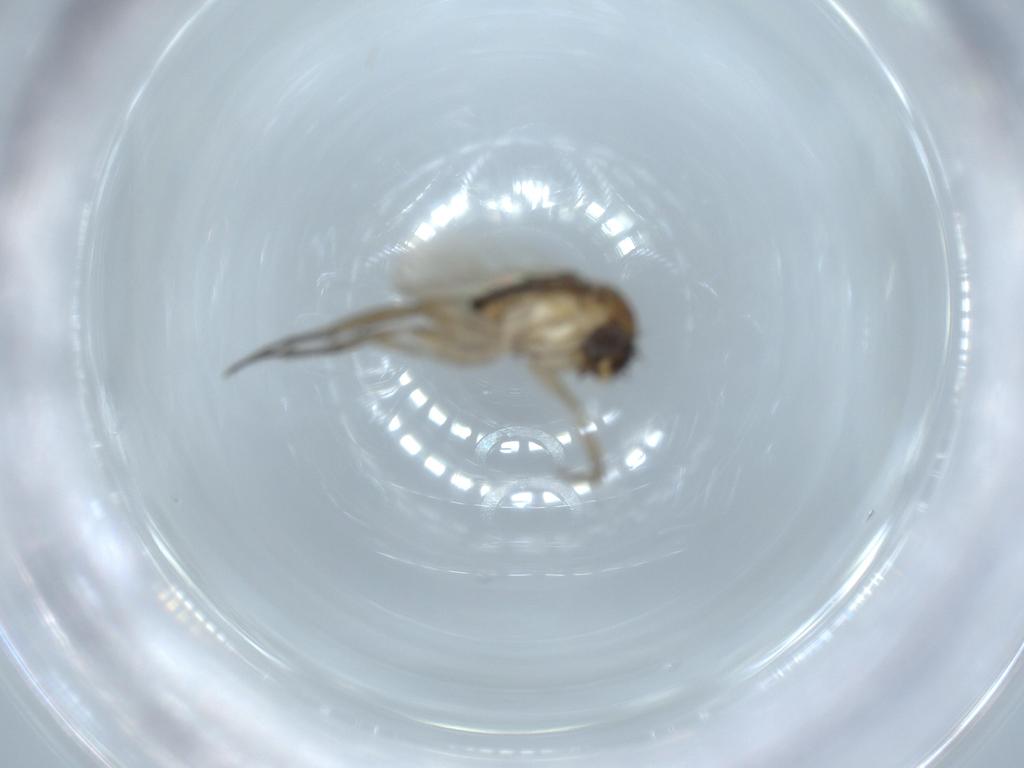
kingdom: Animalia
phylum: Arthropoda
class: Insecta
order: Diptera
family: Phoridae
